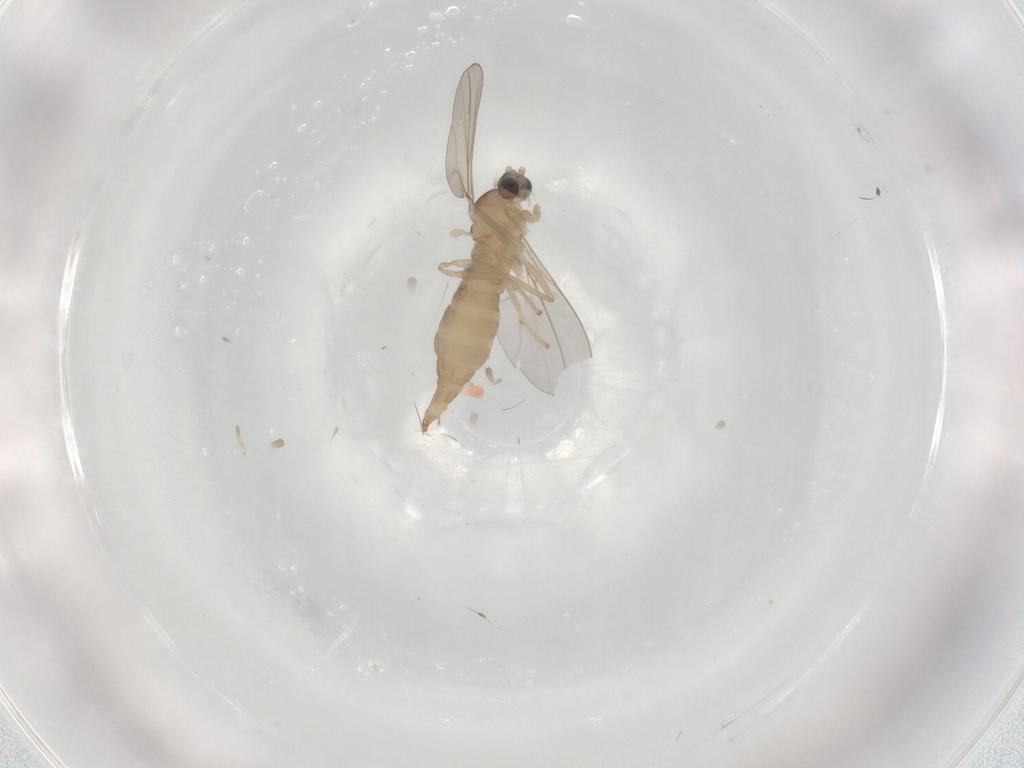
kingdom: Animalia
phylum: Arthropoda
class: Insecta
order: Diptera
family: Cecidomyiidae
